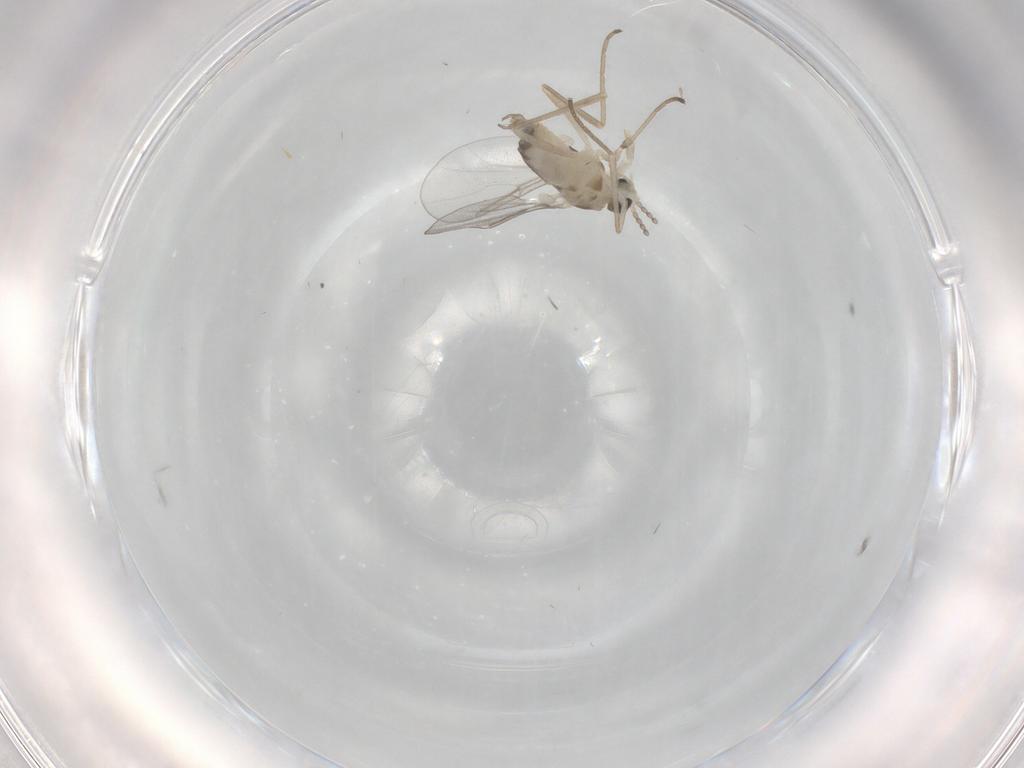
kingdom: Animalia
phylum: Arthropoda
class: Insecta
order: Diptera
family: Cecidomyiidae
